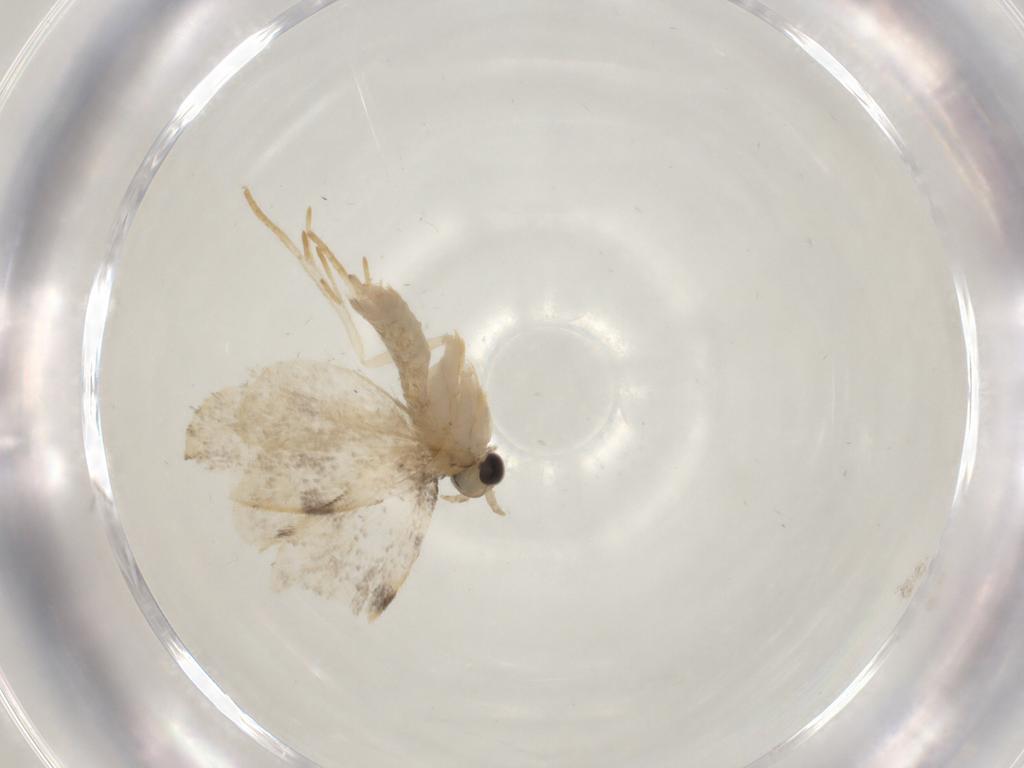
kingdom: Animalia
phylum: Arthropoda
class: Insecta
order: Lepidoptera
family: Psychidae
